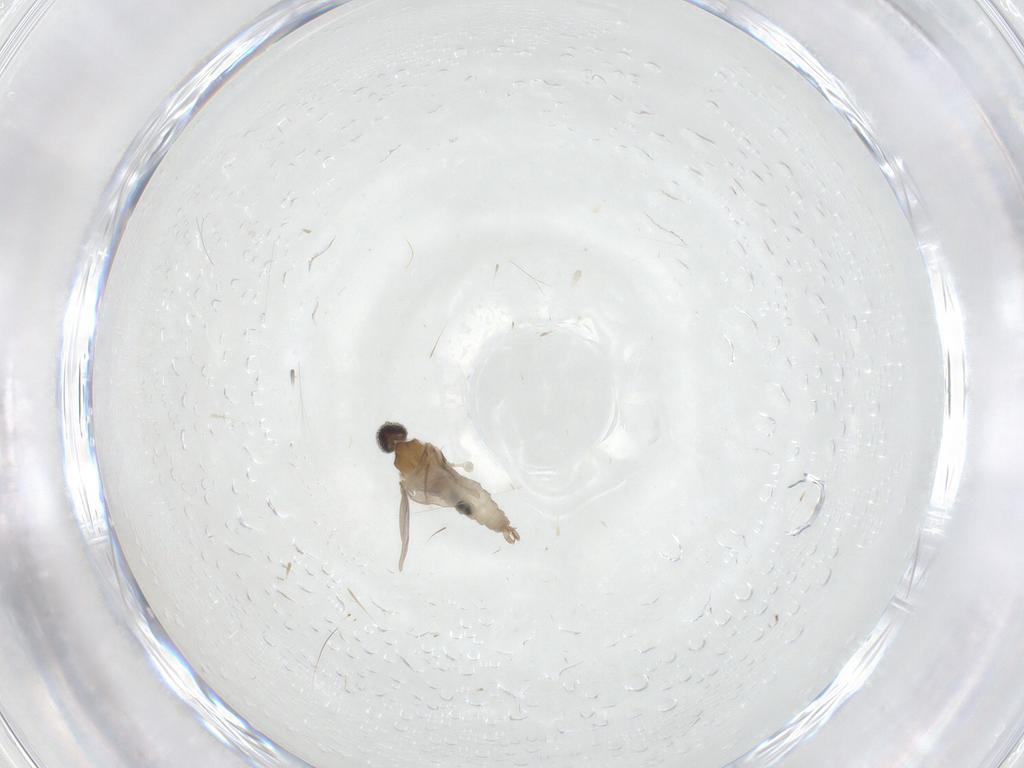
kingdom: Animalia
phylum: Arthropoda
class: Insecta
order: Diptera
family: Cecidomyiidae
